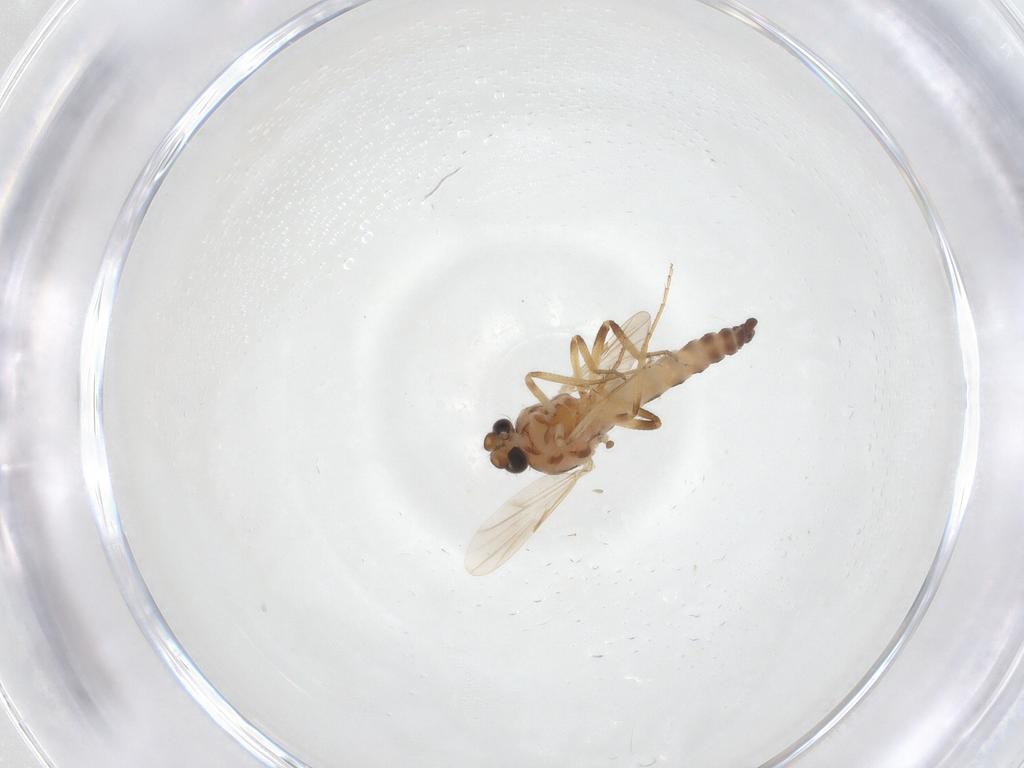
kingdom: Animalia
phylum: Arthropoda
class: Insecta
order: Diptera
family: Ceratopogonidae
